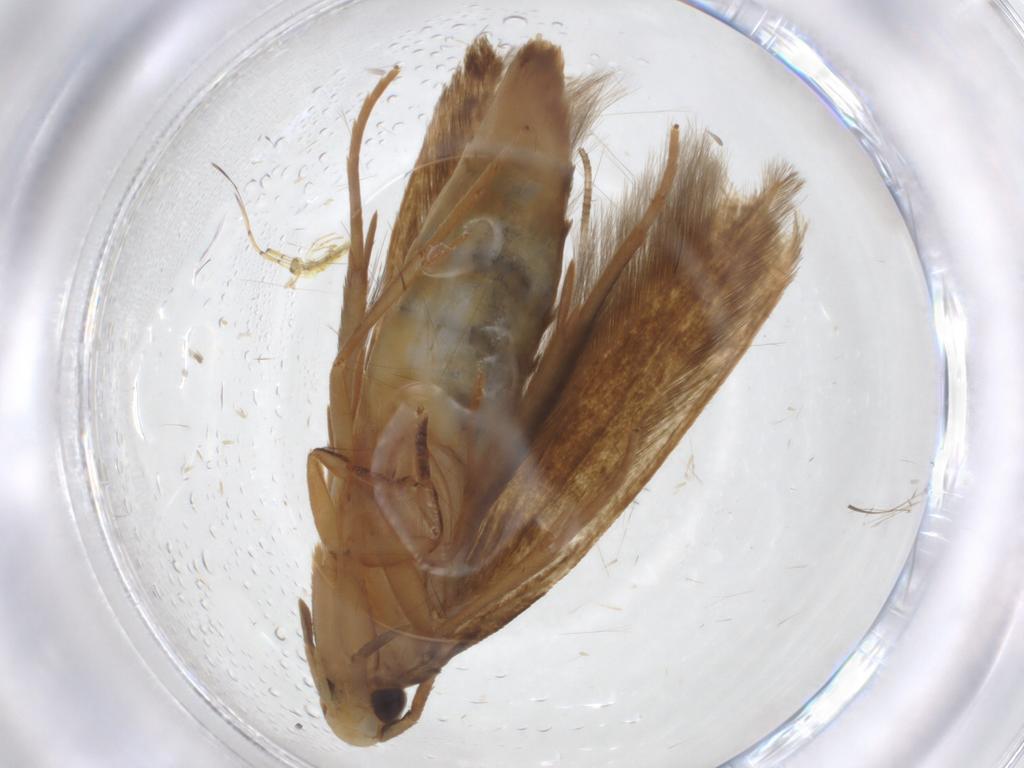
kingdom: Animalia
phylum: Arthropoda
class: Insecta
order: Lepidoptera
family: Tineidae
